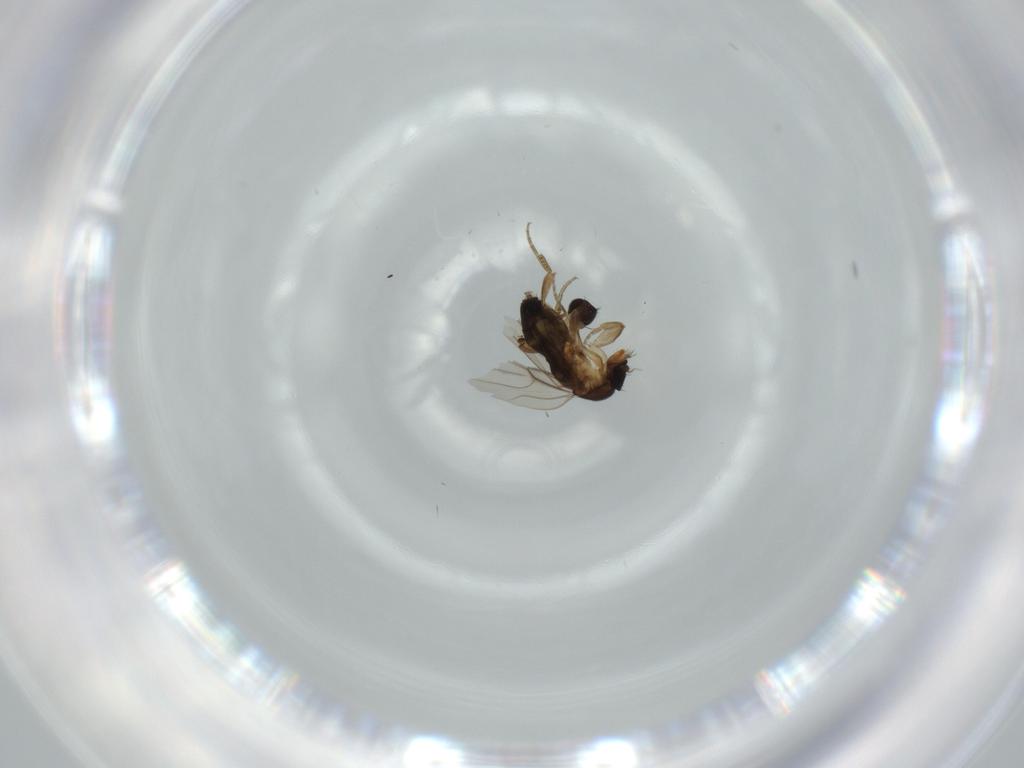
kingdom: Animalia
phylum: Arthropoda
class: Insecta
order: Diptera
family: Phoridae
